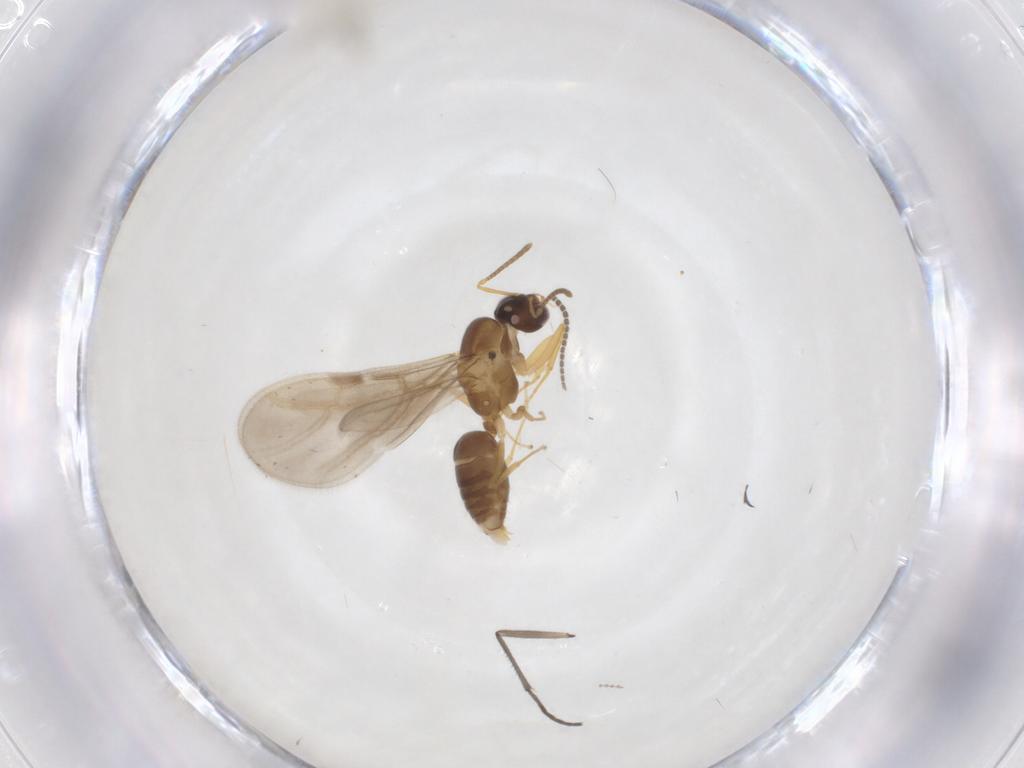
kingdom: Animalia
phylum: Arthropoda
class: Insecta
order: Hymenoptera
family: Formicidae
